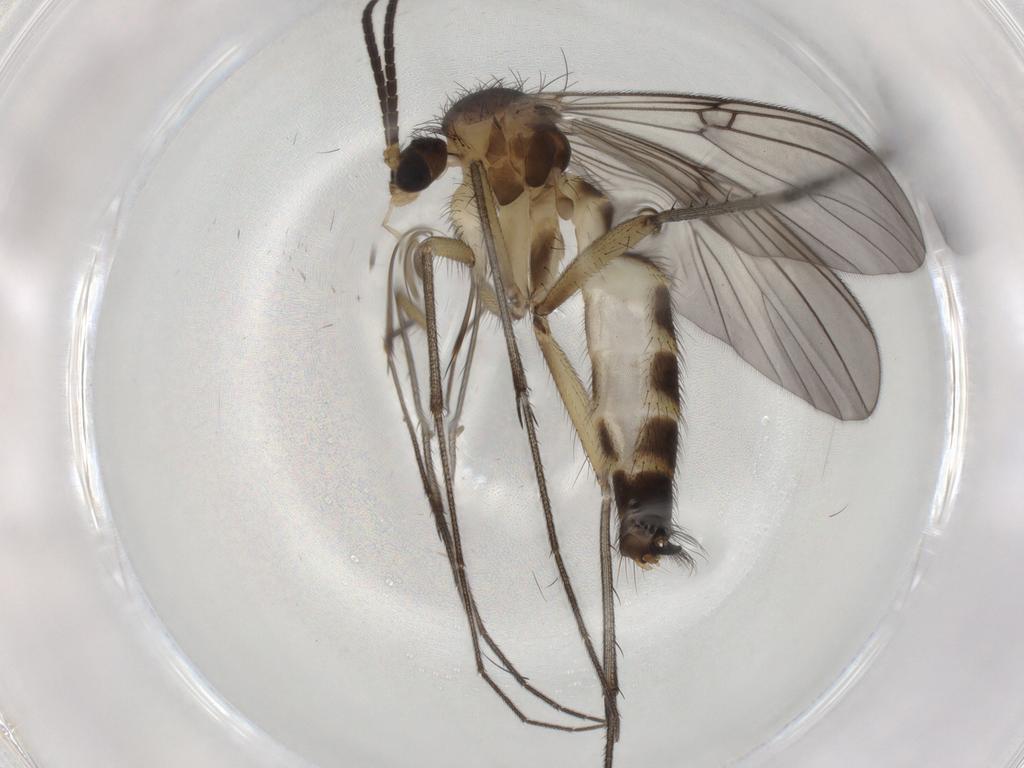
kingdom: Animalia
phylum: Arthropoda
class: Insecta
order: Diptera
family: Mycetophilidae
